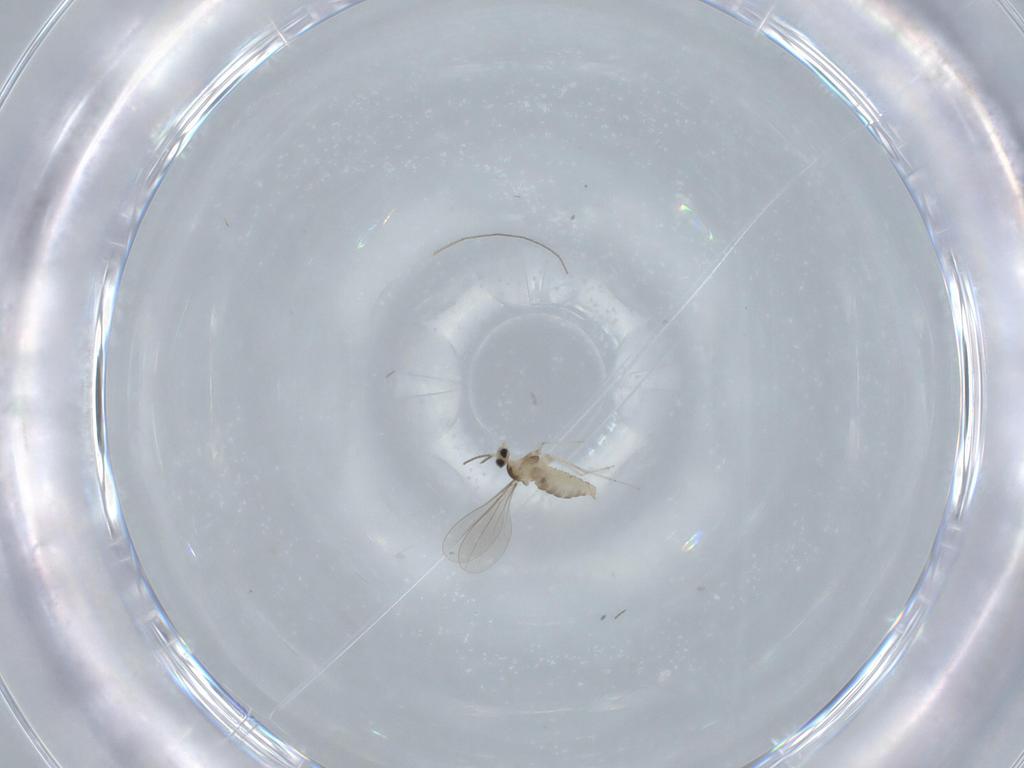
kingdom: Animalia
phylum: Arthropoda
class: Insecta
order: Diptera
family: Cecidomyiidae
